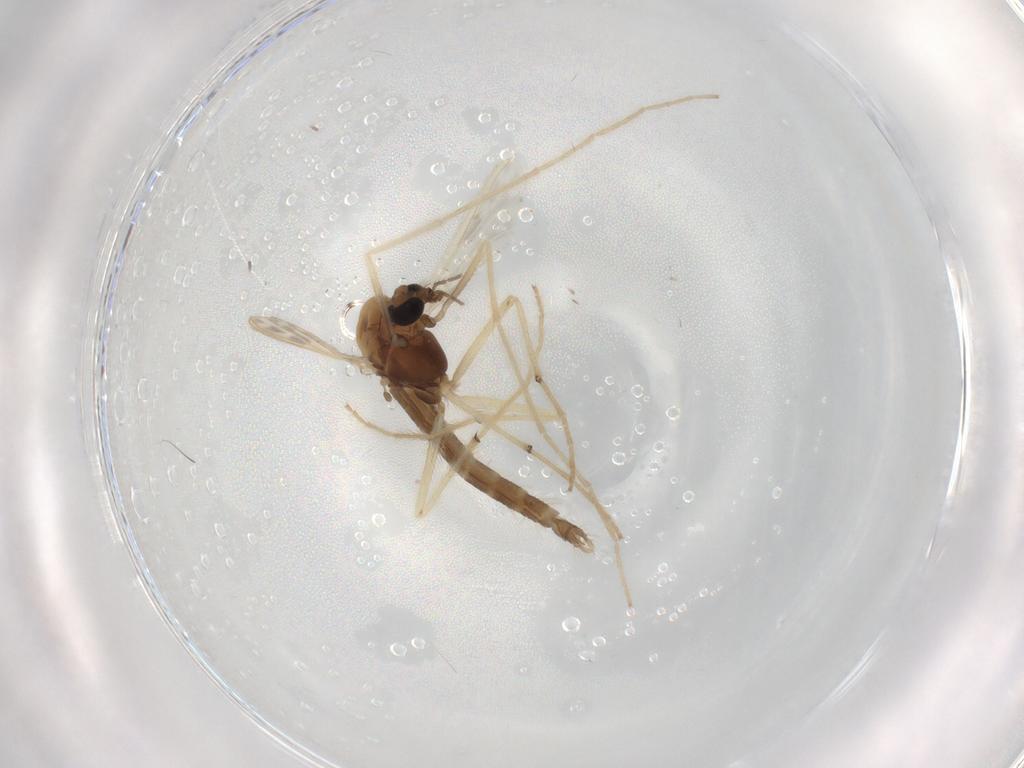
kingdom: Animalia
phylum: Arthropoda
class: Insecta
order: Diptera
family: Chironomidae
